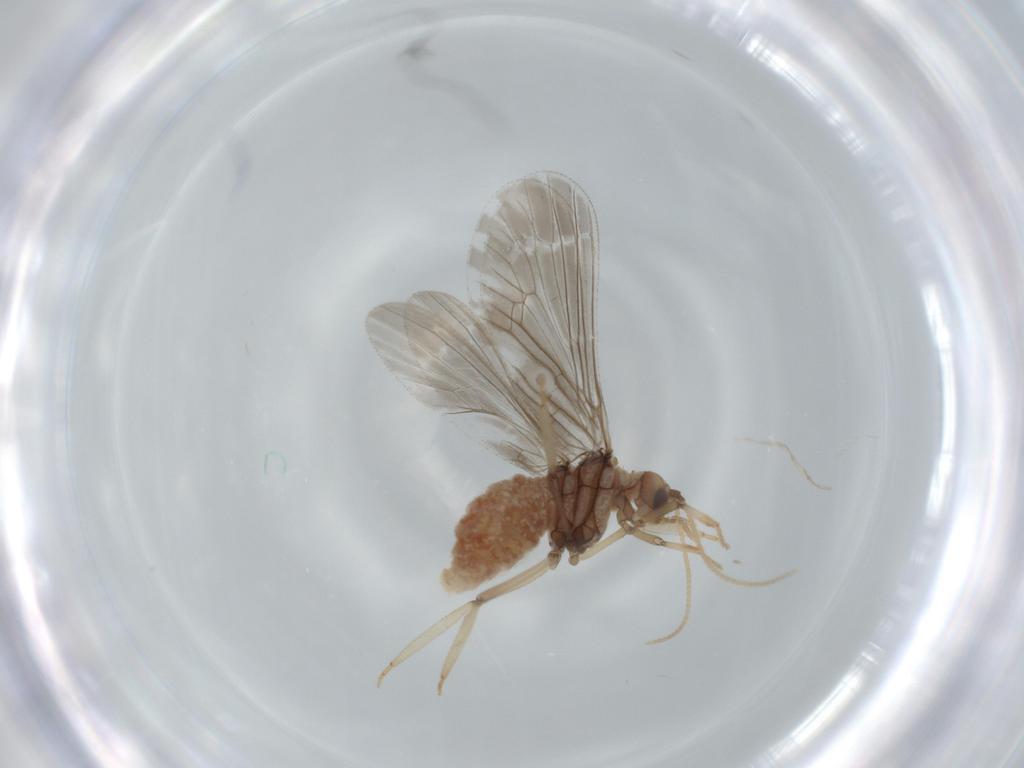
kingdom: Animalia
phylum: Arthropoda
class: Insecta
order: Neuroptera
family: Coniopterygidae
